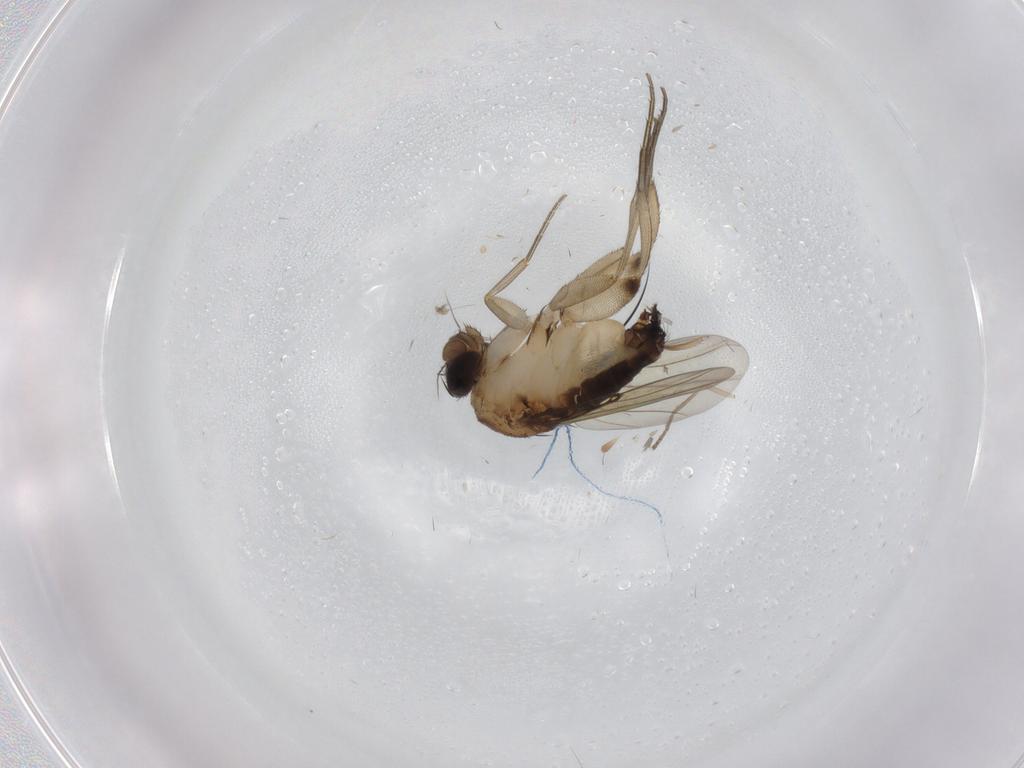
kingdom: Animalia
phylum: Arthropoda
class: Insecta
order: Diptera
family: Phoridae
